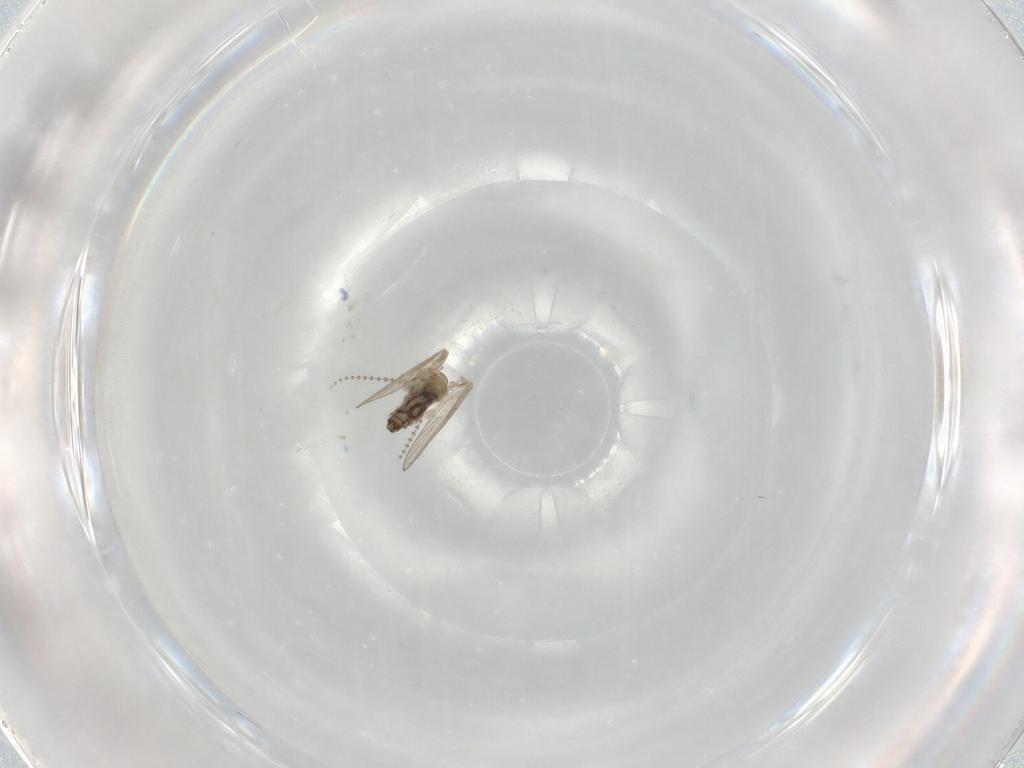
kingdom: Animalia
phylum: Arthropoda
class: Insecta
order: Diptera
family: Psychodidae
